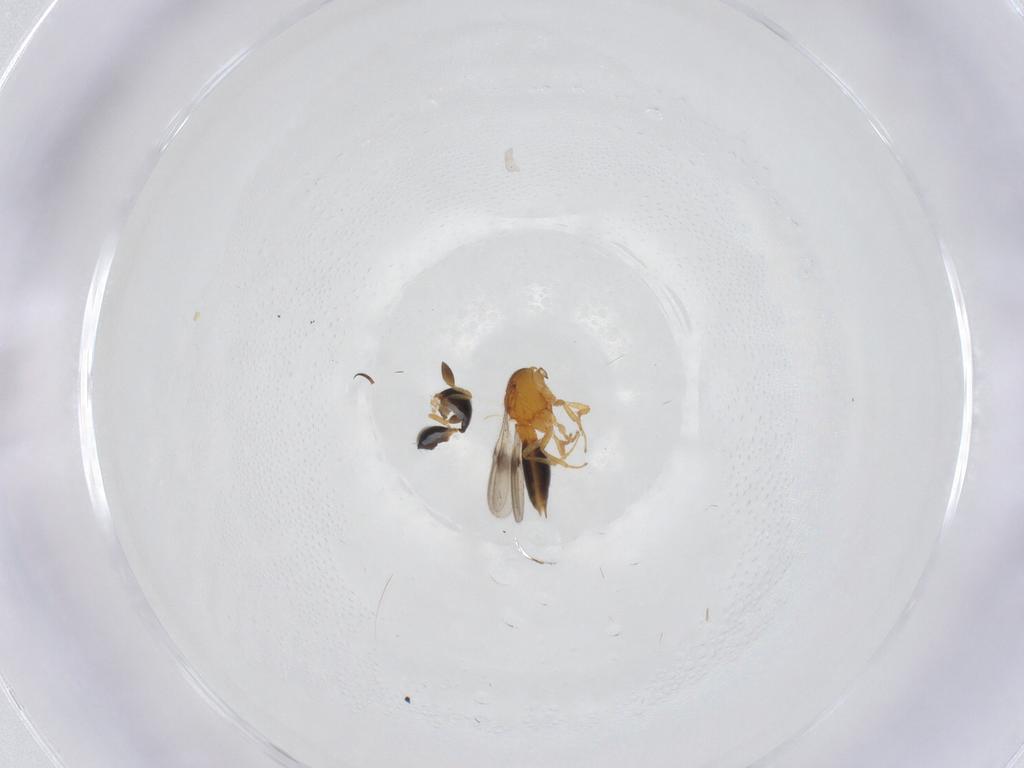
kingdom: Animalia
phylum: Arthropoda
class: Insecta
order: Hymenoptera
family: Scelionidae
